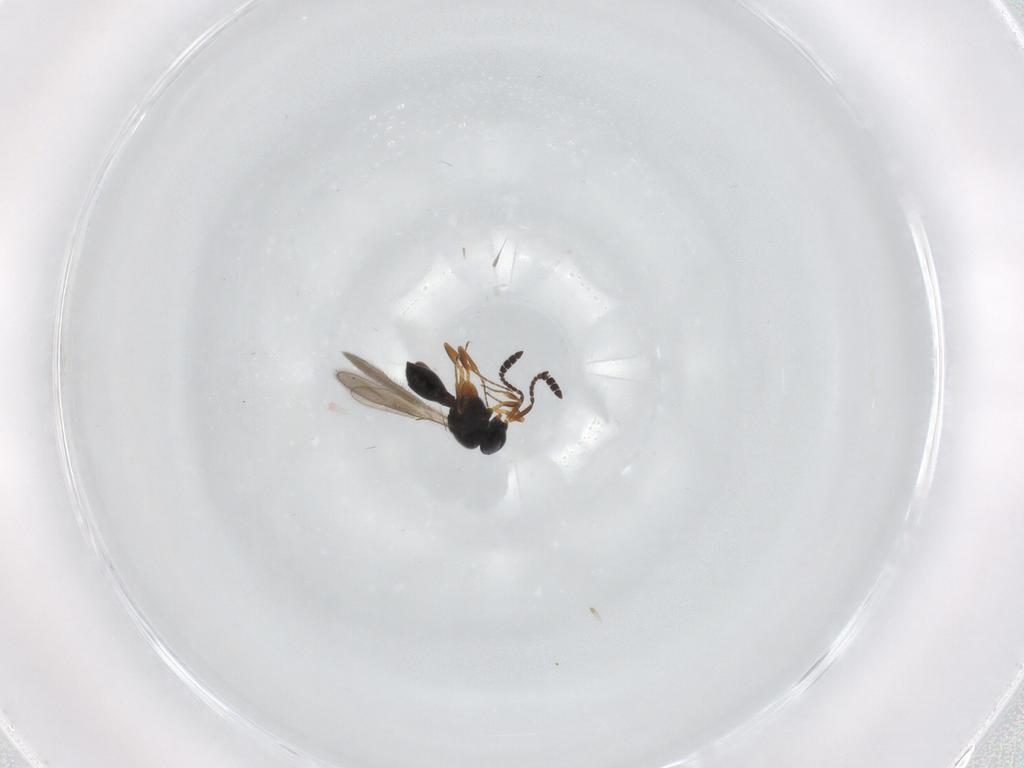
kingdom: Animalia
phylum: Arthropoda
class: Insecta
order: Hymenoptera
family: Scelionidae
